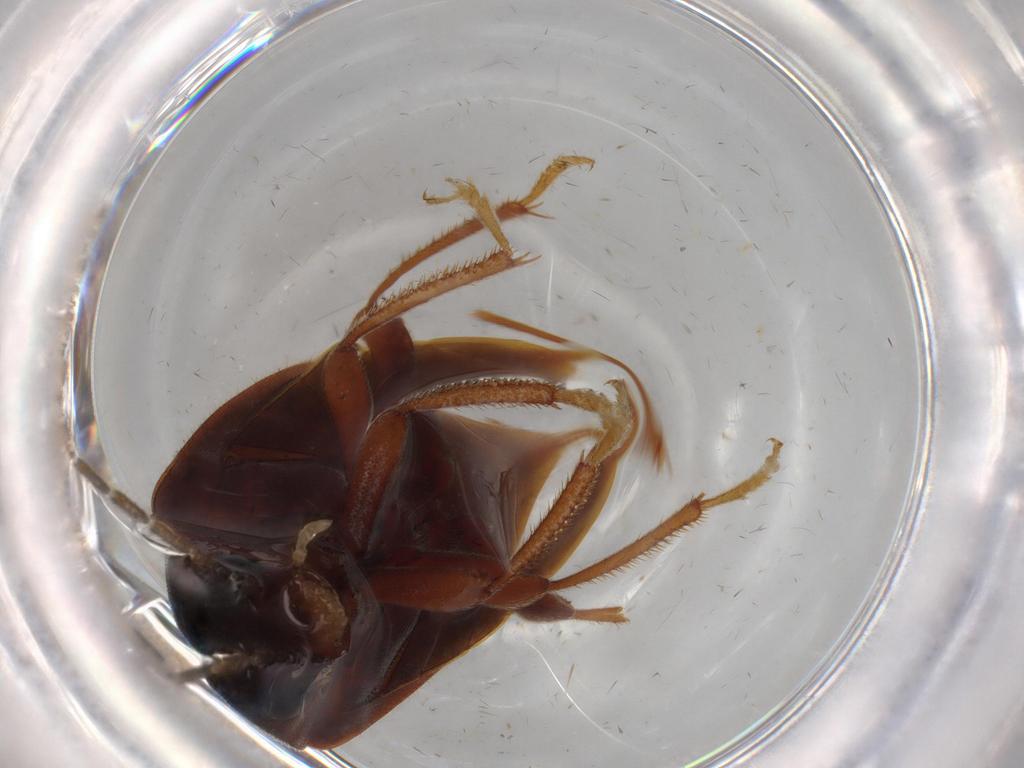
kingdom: Animalia
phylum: Arthropoda
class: Insecta
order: Coleoptera
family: Ptilodactylidae
